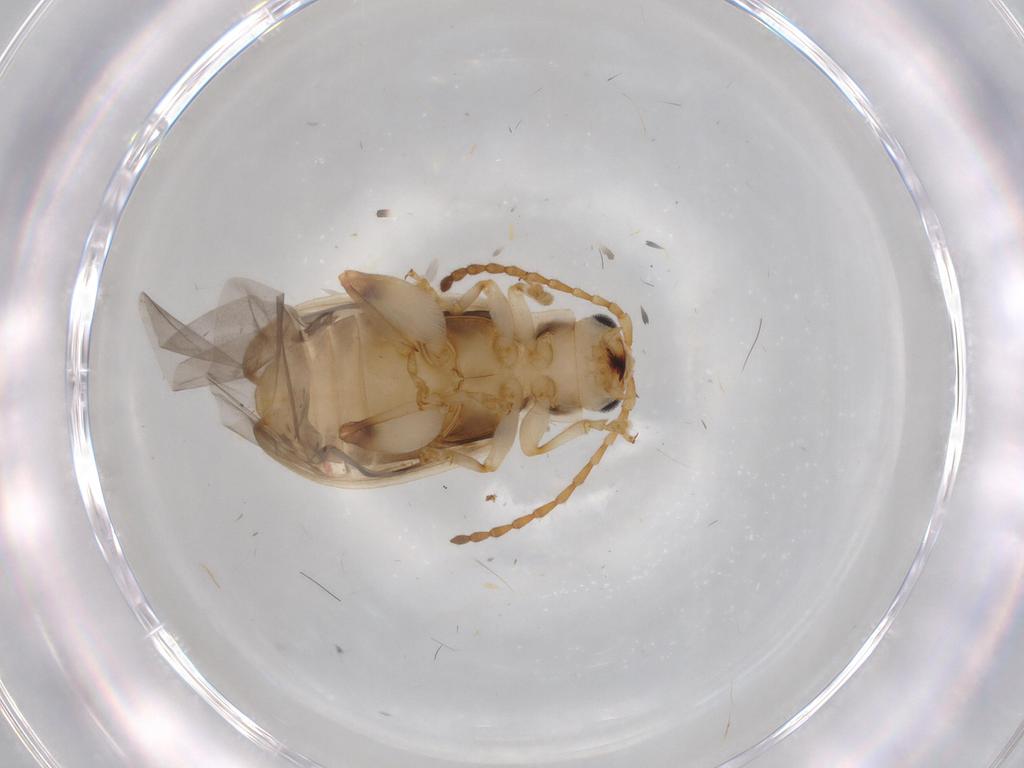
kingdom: Animalia
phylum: Arthropoda
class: Insecta
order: Coleoptera
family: Chrysomelidae
